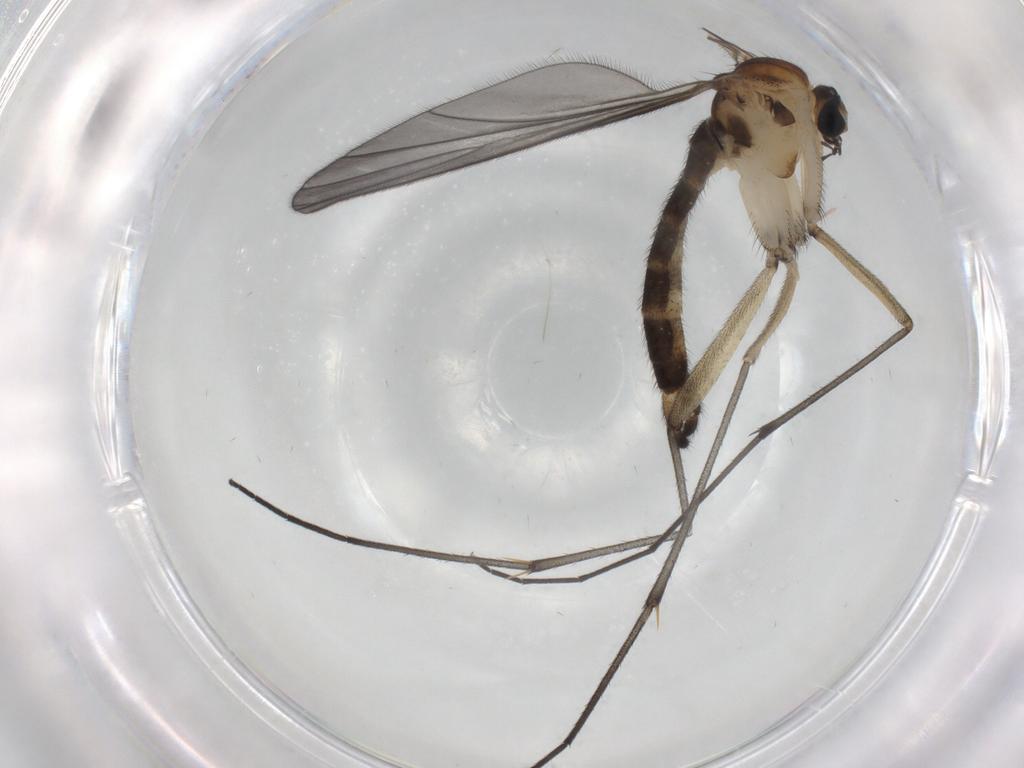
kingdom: Animalia
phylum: Arthropoda
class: Insecta
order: Diptera
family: Sciaridae
